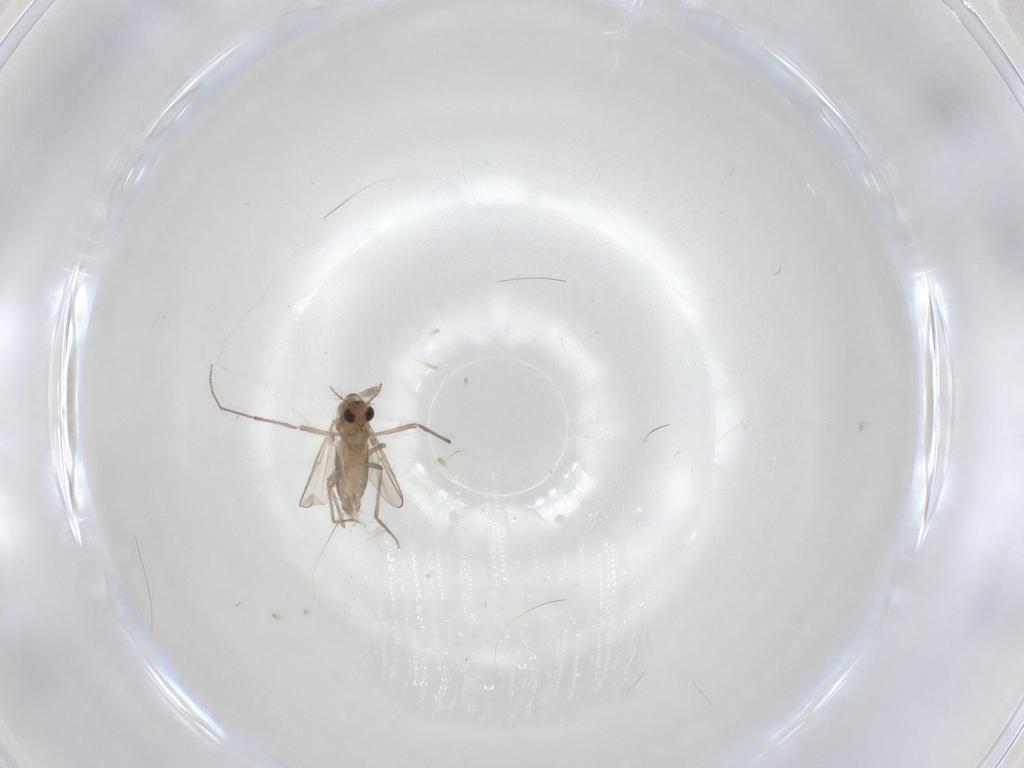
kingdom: Animalia
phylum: Arthropoda
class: Insecta
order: Diptera
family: Chironomidae
